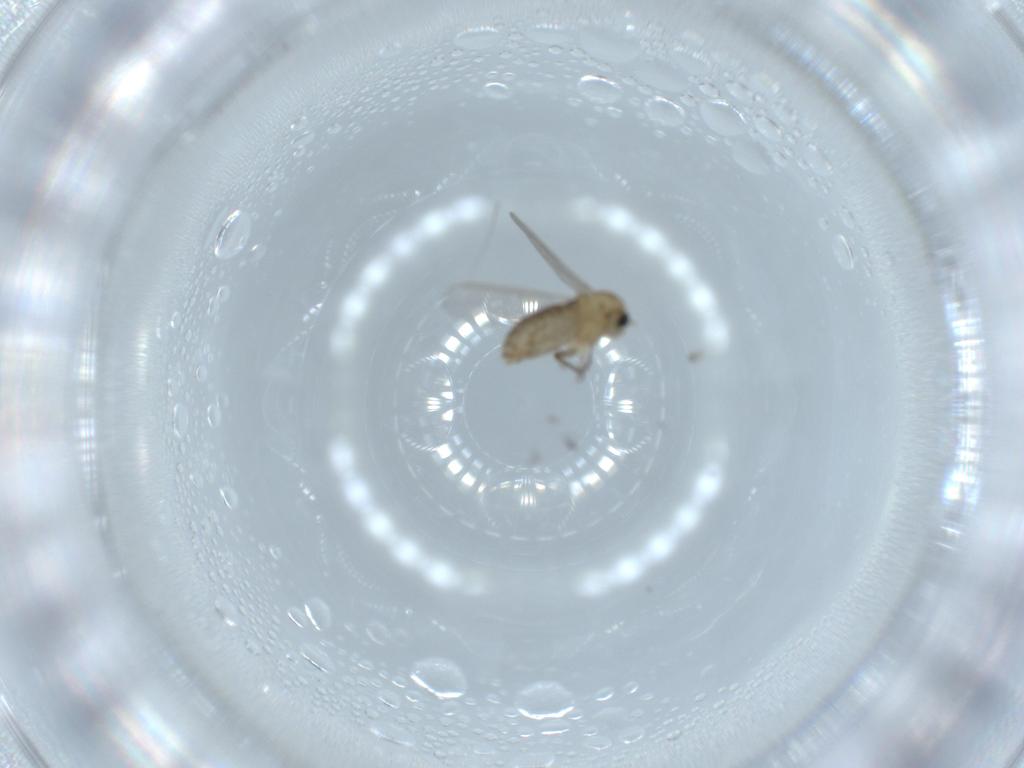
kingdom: Animalia
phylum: Arthropoda
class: Insecta
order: Diptera
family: Chironomidae
